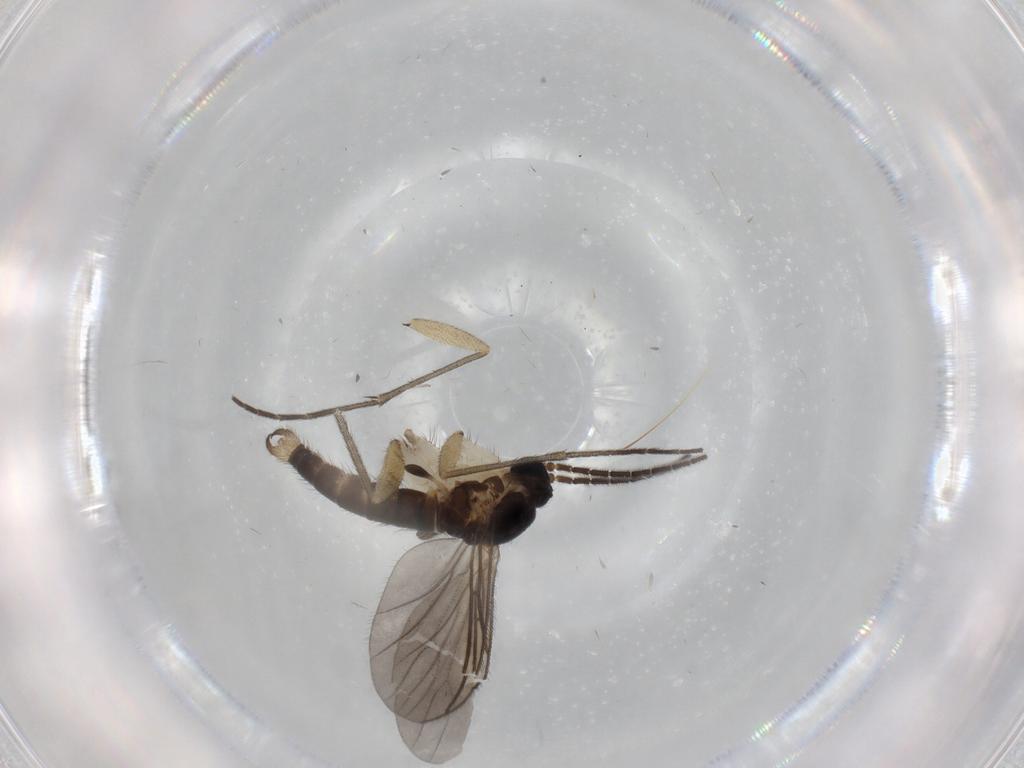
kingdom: Animalia
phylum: Arthropoda
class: Insecta
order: Diptera
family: Sciaridae
